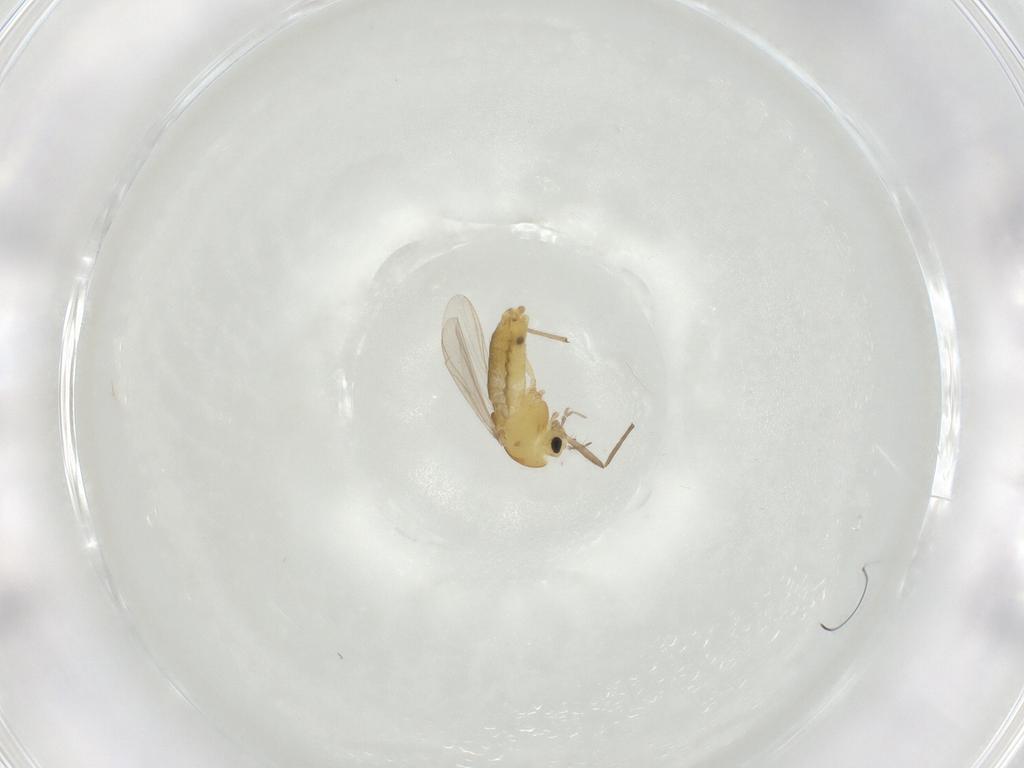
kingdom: Animalia
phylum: Arthropoda
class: Insecta
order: Diptera
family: Chironomidae
